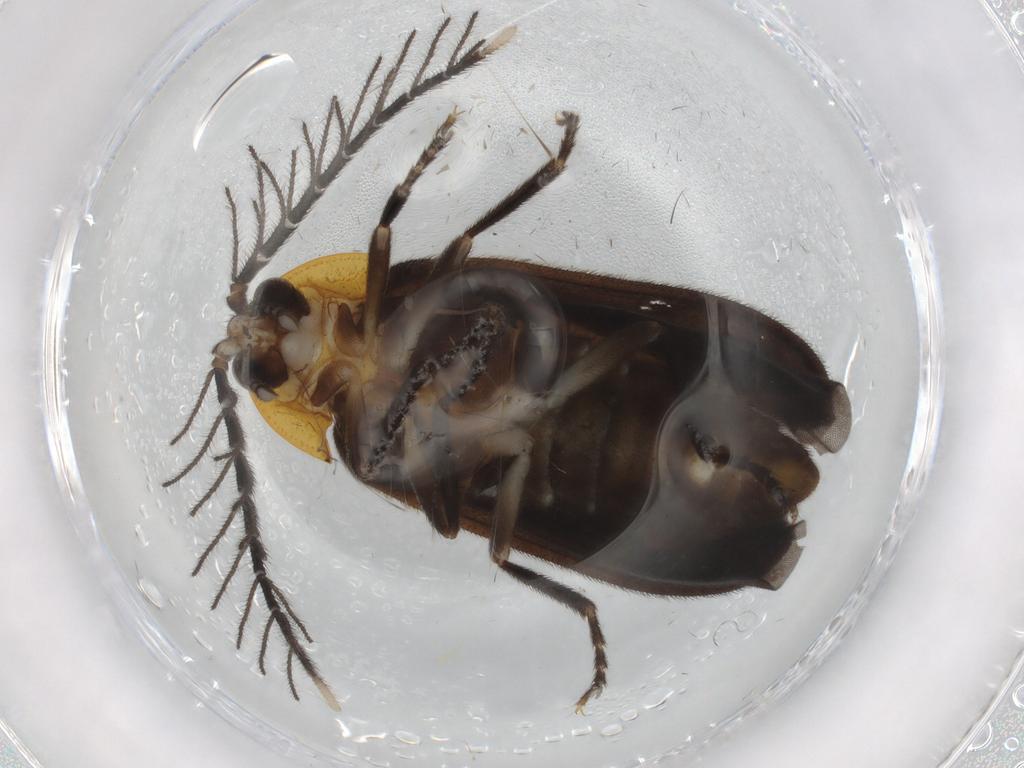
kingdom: Animalia
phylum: Arthropoda
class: Insecta
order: Coleoptera
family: Lampyridae
